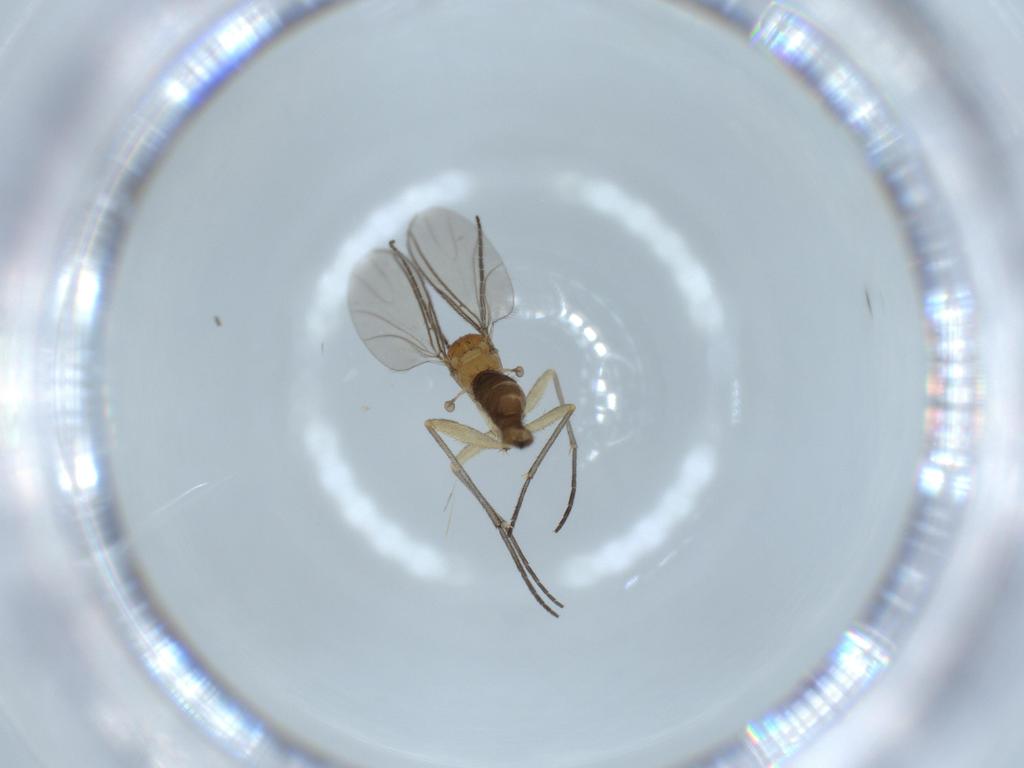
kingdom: Animalia
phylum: Arthropoda
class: Insecta
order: Diptera
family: Sciaridae
